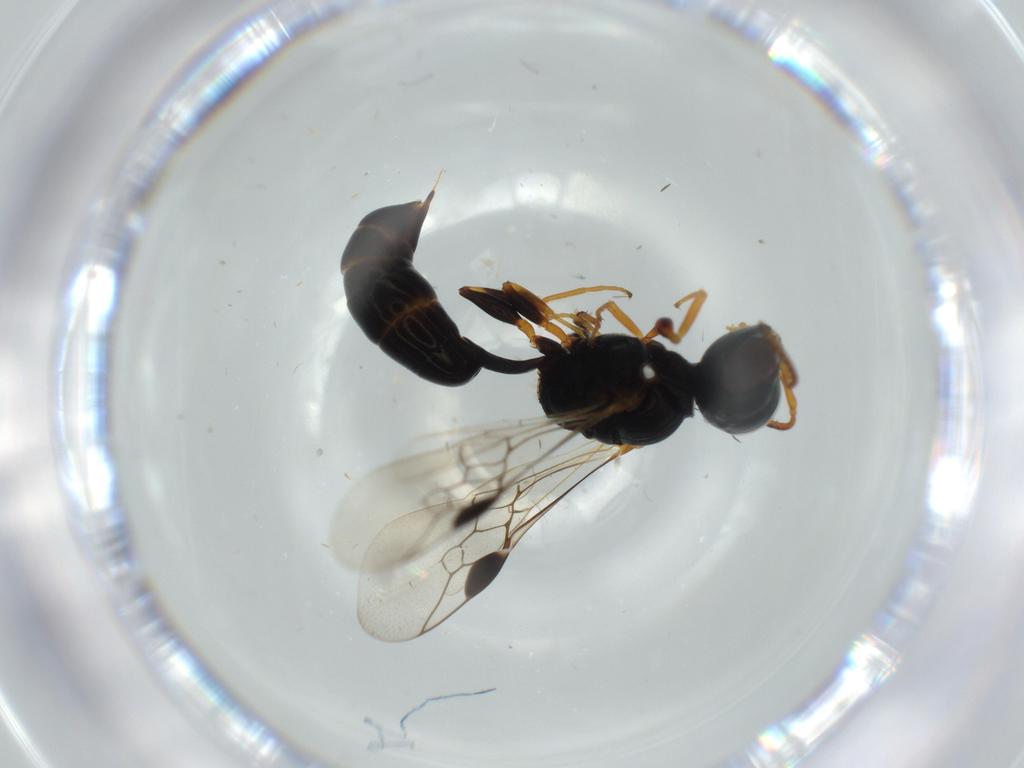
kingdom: Animalia
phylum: Arthropoda
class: Insecta
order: Hymenoptera
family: Pemphredonidae
